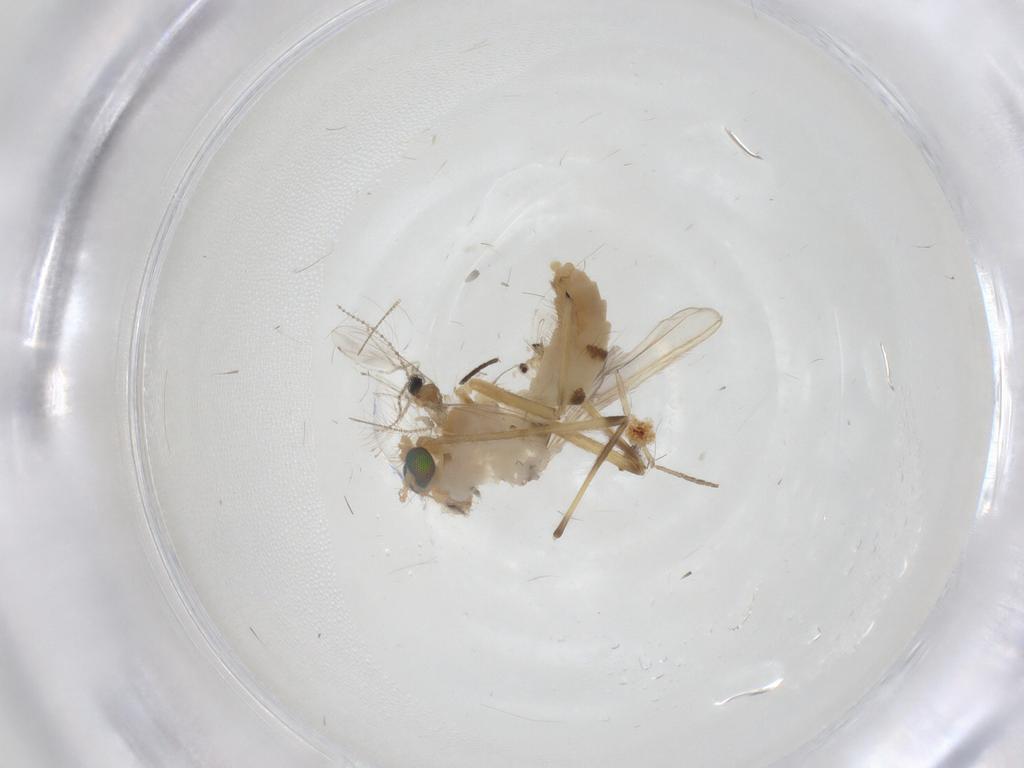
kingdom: Animalia
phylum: Arthropoda
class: Insecta
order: Diptera
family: Chironomidae
